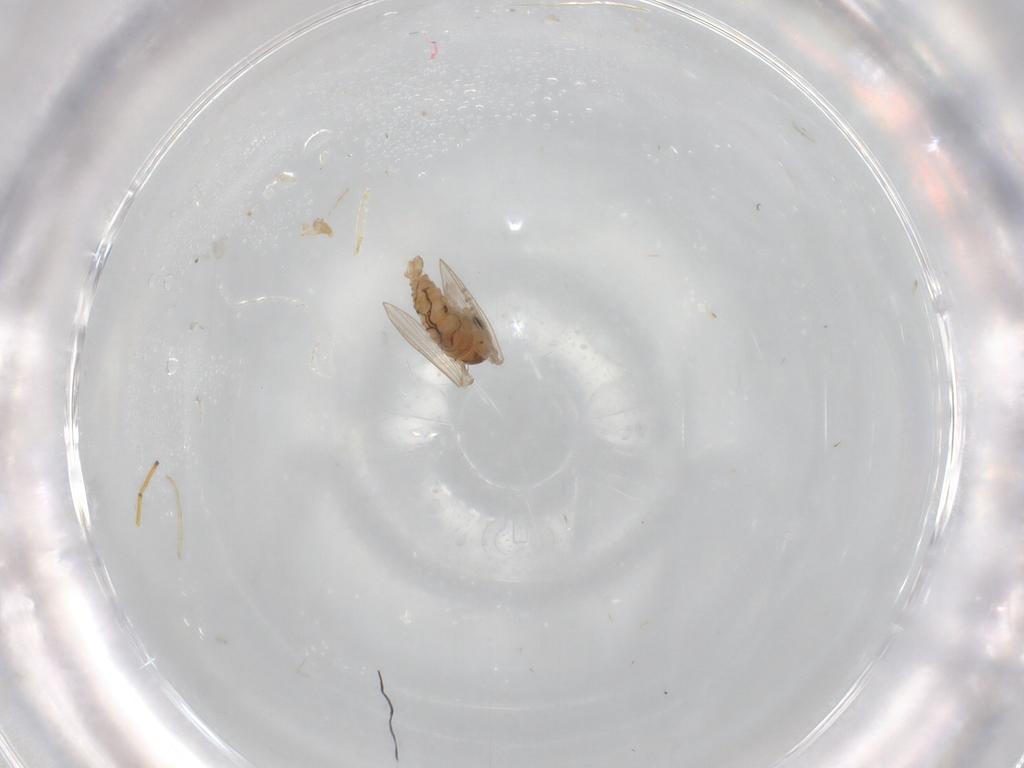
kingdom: Animalia
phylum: Arthropoda
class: Insecta
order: Diptera
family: Psychodidae
